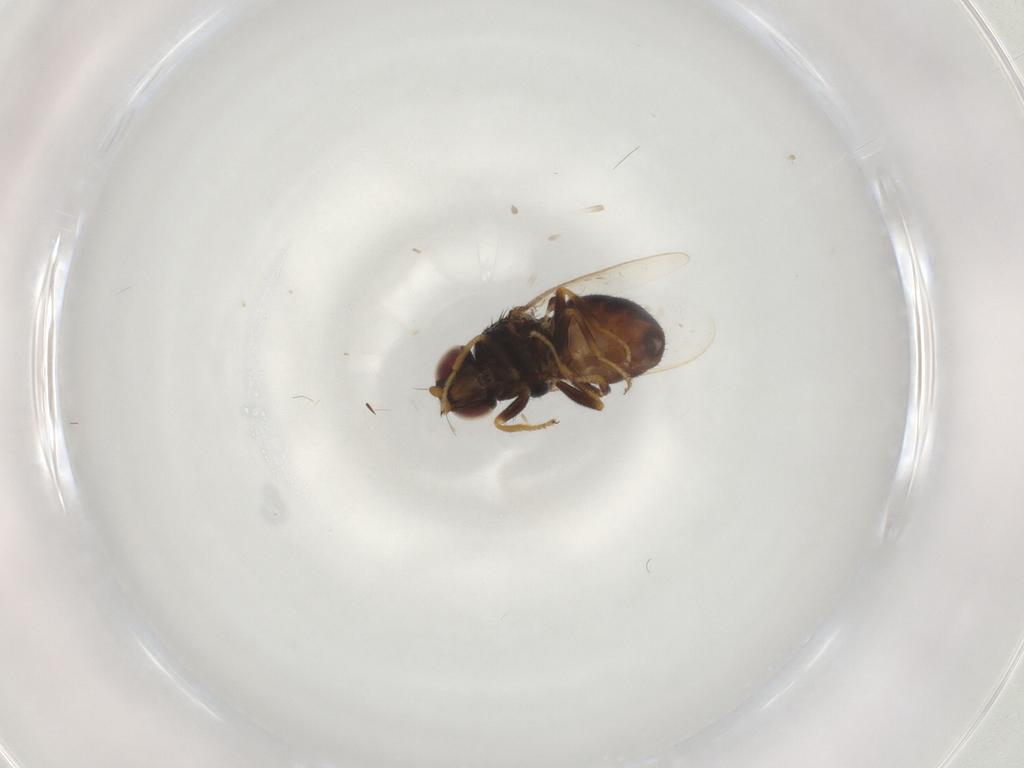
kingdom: Animalia
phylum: Arthropoda
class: Insecta
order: Diptera
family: Chloropidae
